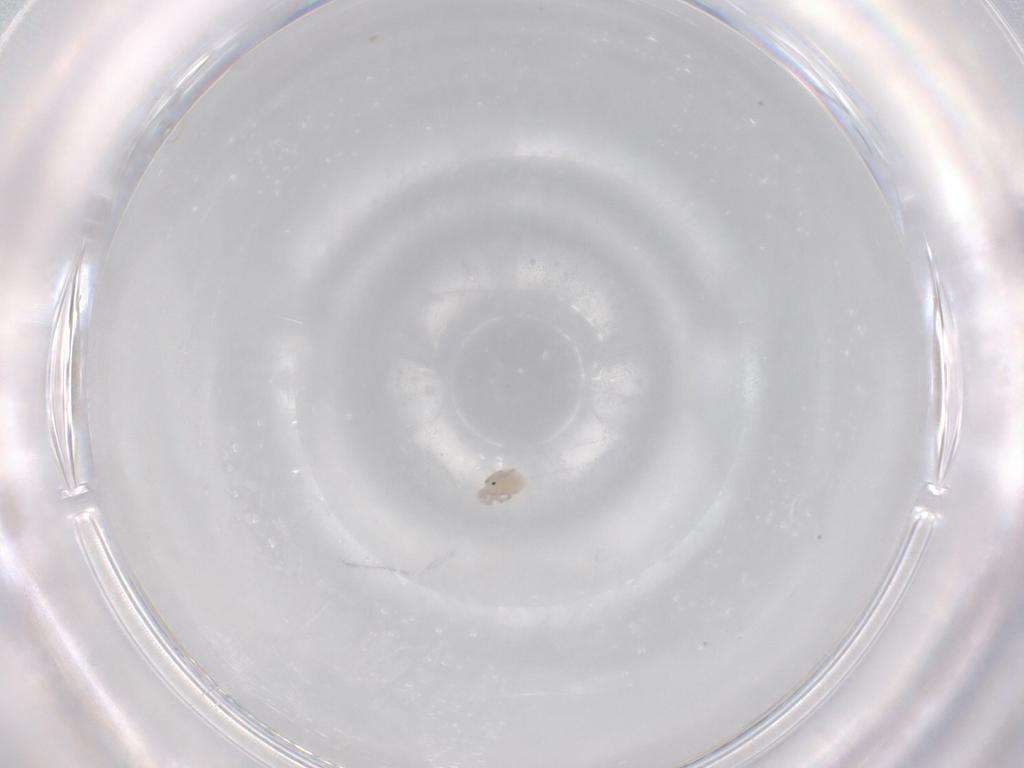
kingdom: Animalia
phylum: Arthropoda
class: Arachnida
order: Trombidiformes
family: Lebertiidae
